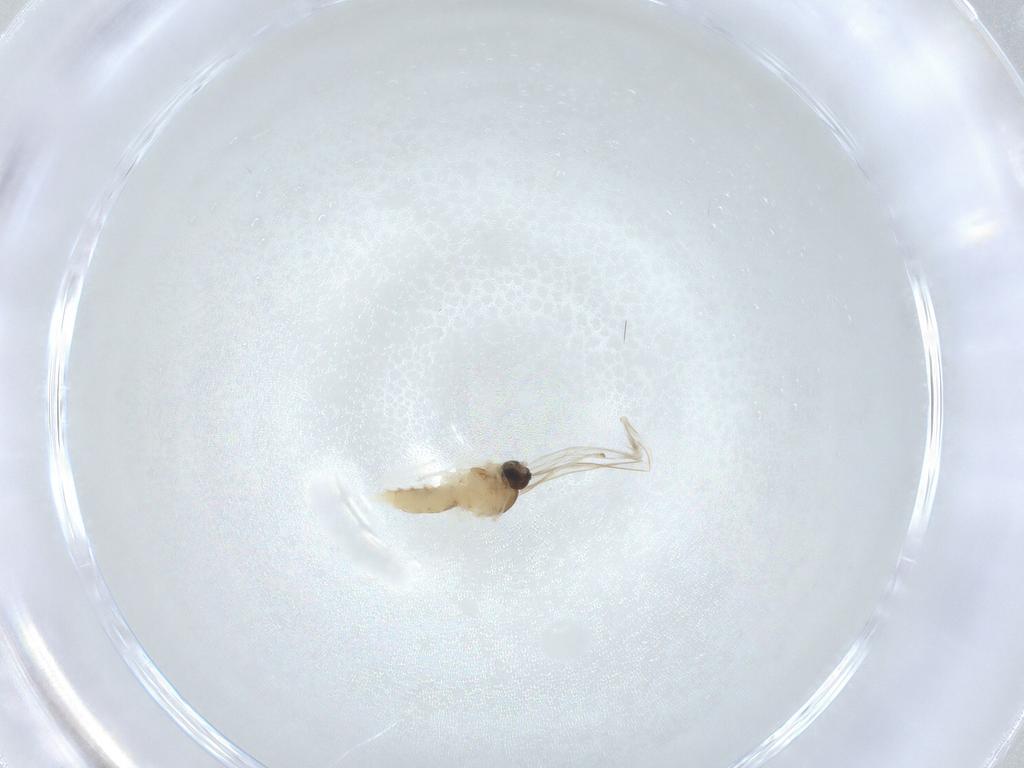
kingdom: Animalia
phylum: Arthropoda
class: Insecta
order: Diptera
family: Cecidomyiidae
